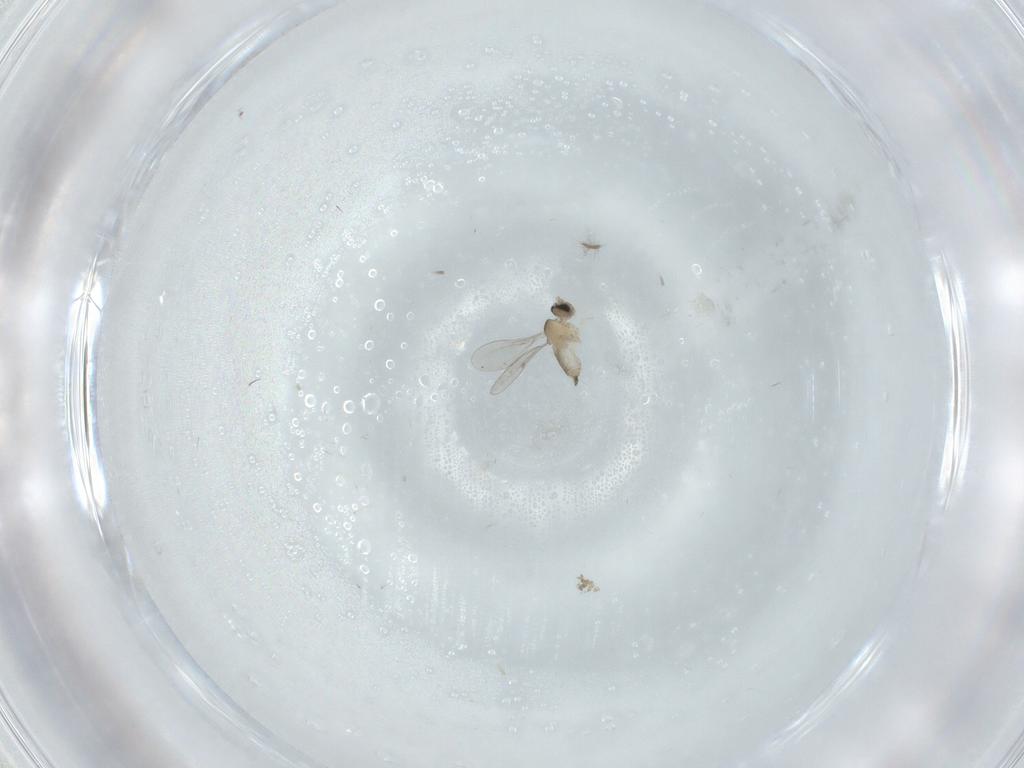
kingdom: Animalia
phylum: Arthropoda
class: Insecta
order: Diptera
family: Chironomidae
